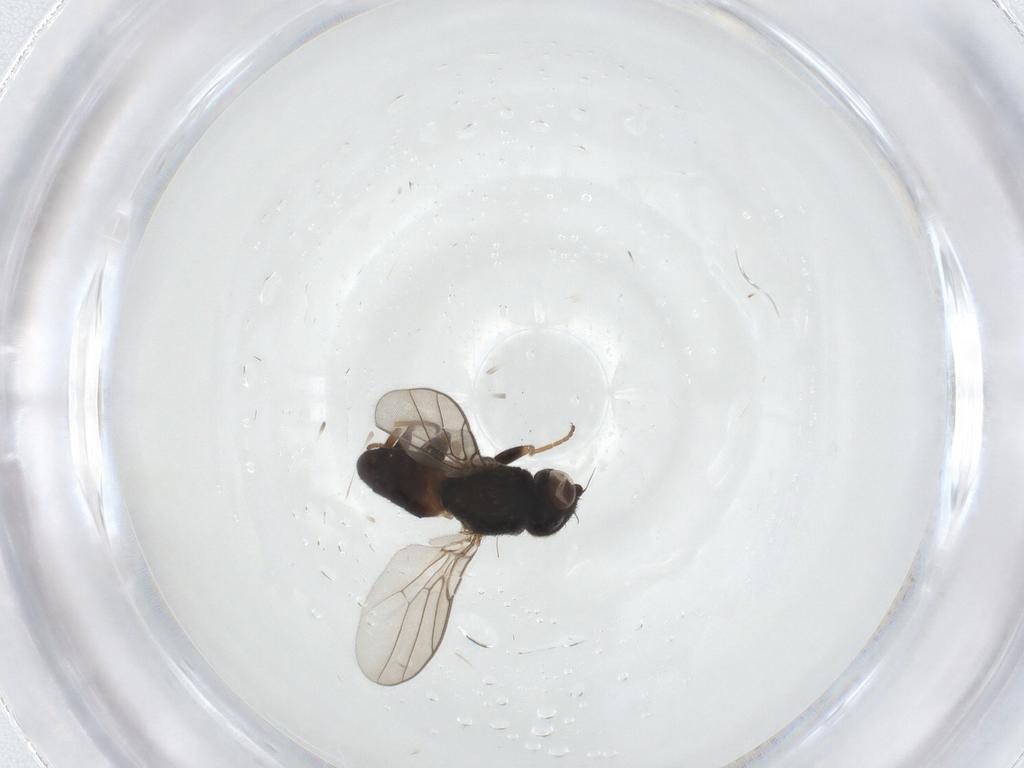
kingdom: Animalia
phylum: Arthropoda
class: Insecta
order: Diptera
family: Chloropidae
